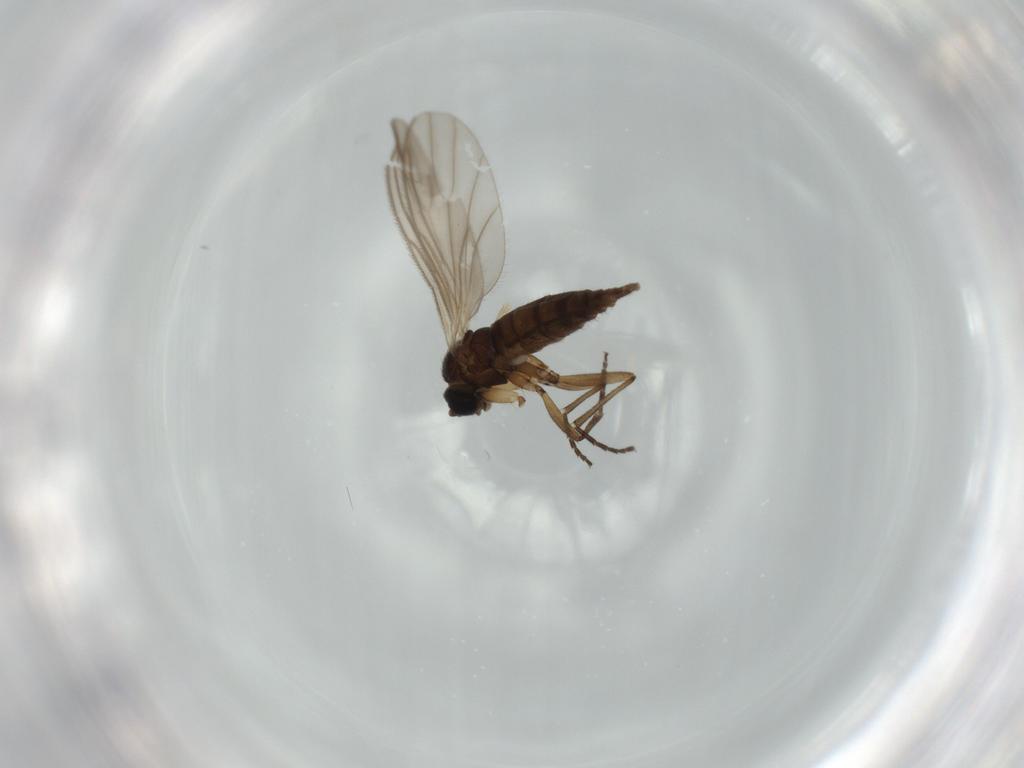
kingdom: Animalia
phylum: Arthropoda
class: Insecta
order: Diptera
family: Sciaridae
